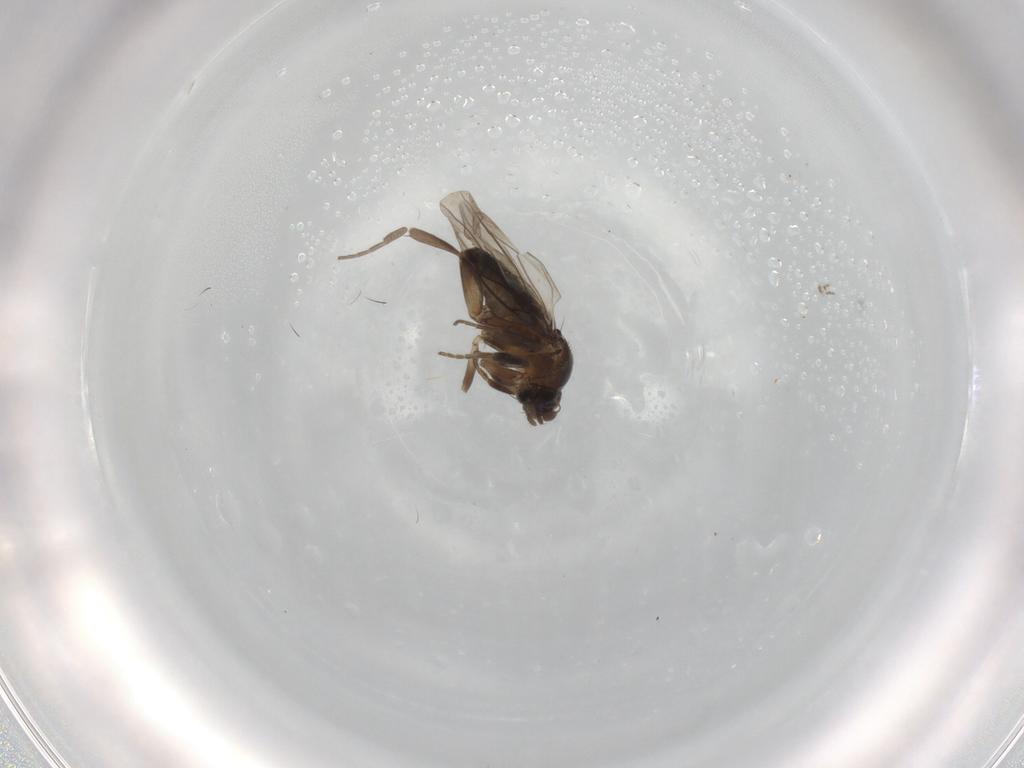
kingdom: Animalia
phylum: Arthropoda
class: Insecta
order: Diptera
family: Phoridae
